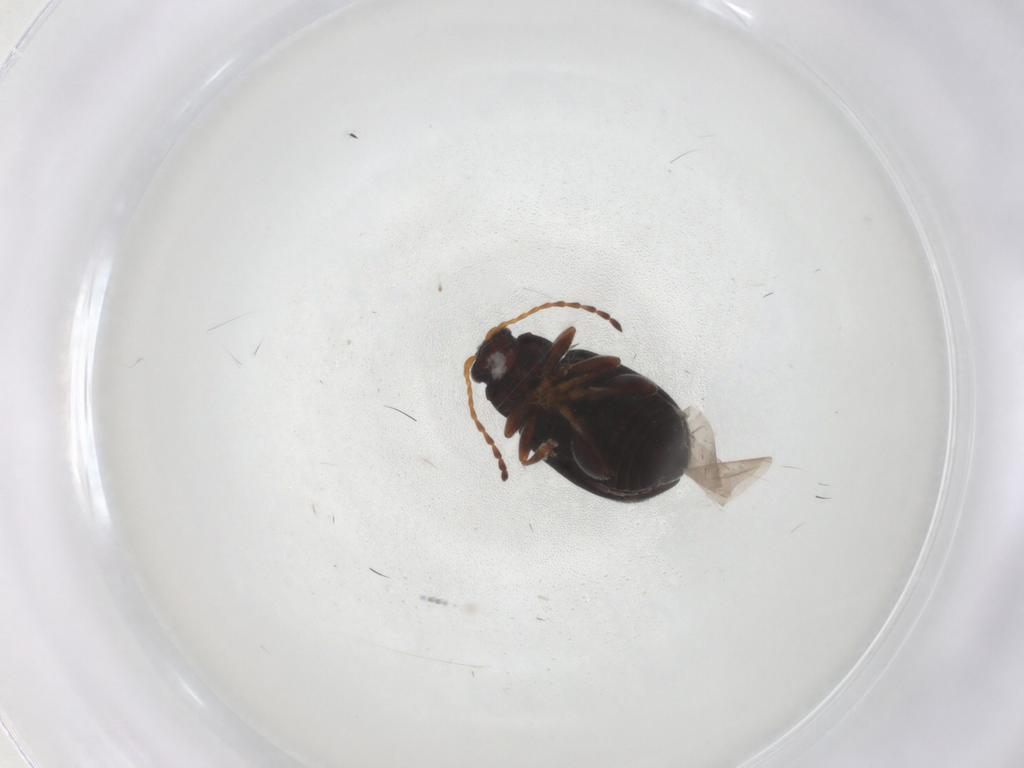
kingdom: Animalia
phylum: Arthropoda
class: Insecta
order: Coleoptera
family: Chrysomelidae
